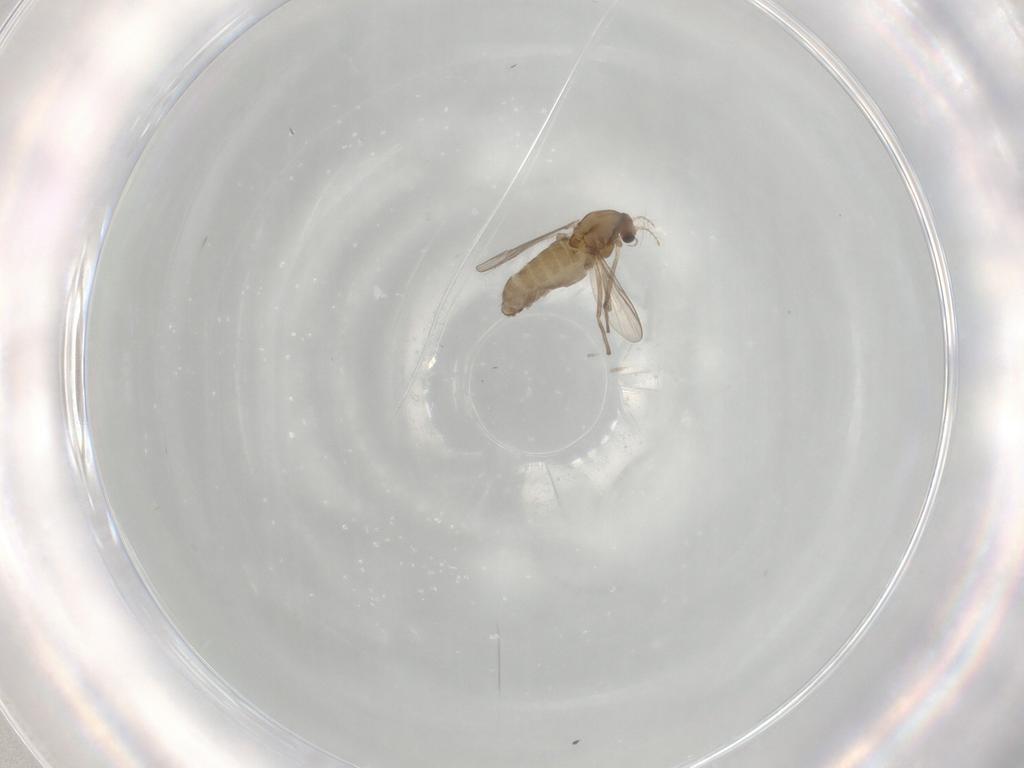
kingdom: Animalia
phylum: Arthropoda
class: Insecta
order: Diptera
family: Chironomidae
